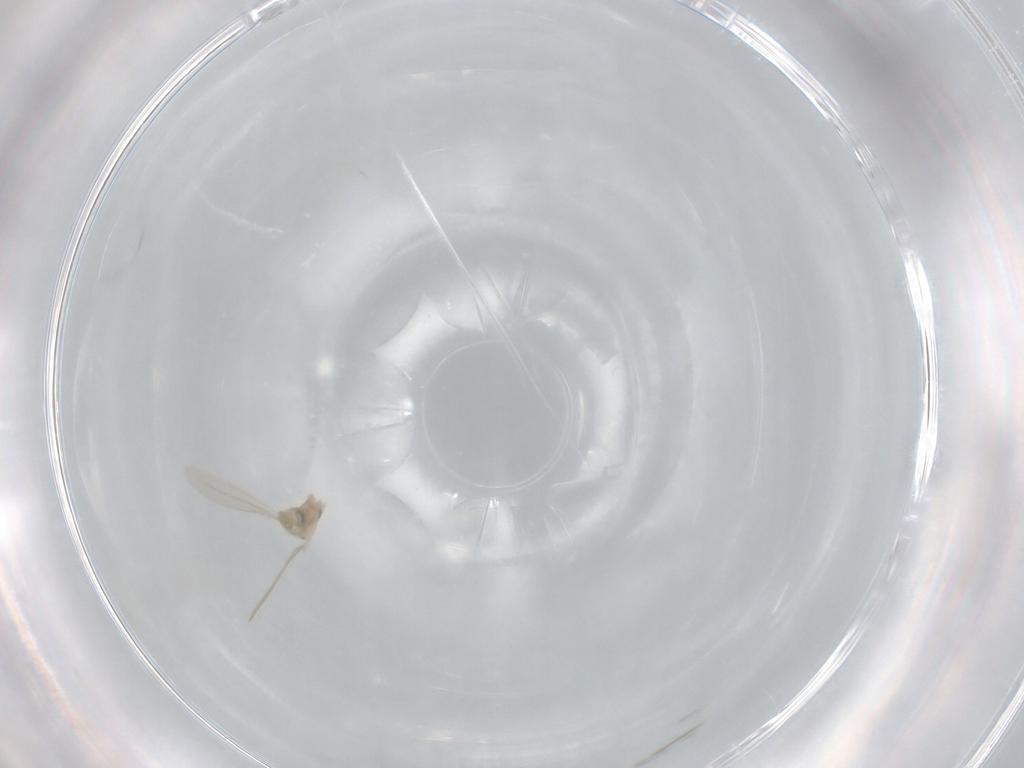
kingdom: Animalia
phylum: Arthropoda
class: Insecta
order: Diptera
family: Cecidomyiidae
